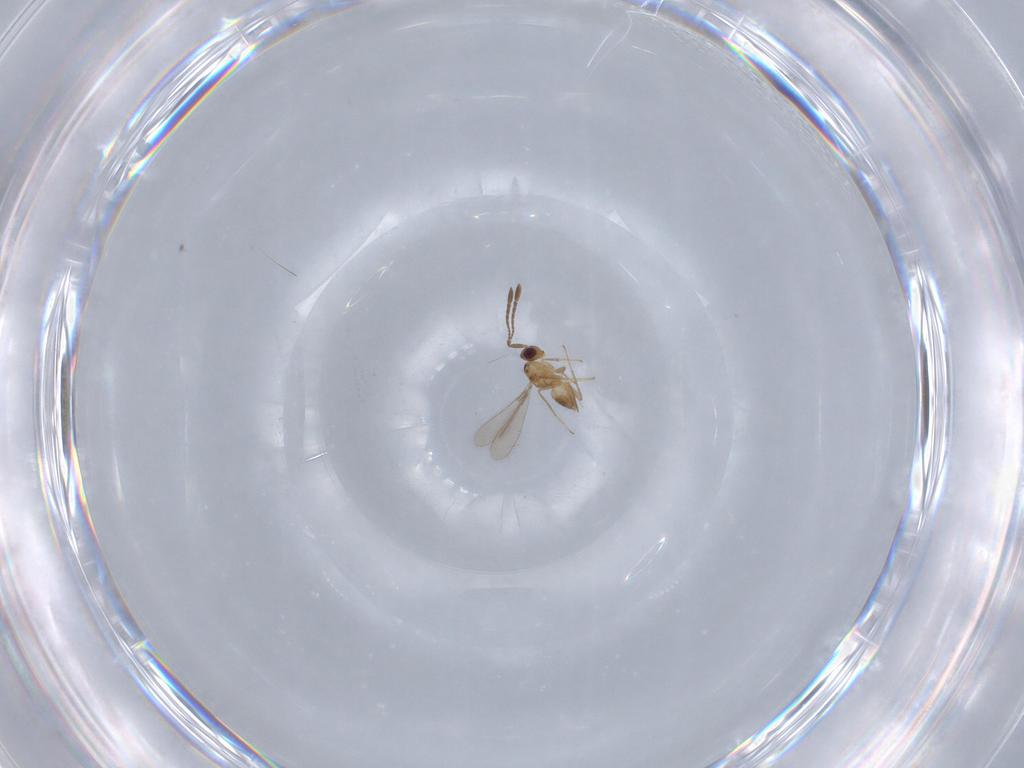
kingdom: Animalia
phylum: Arthropoda
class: Insecta
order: Hymenoptera
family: Mymaridae
